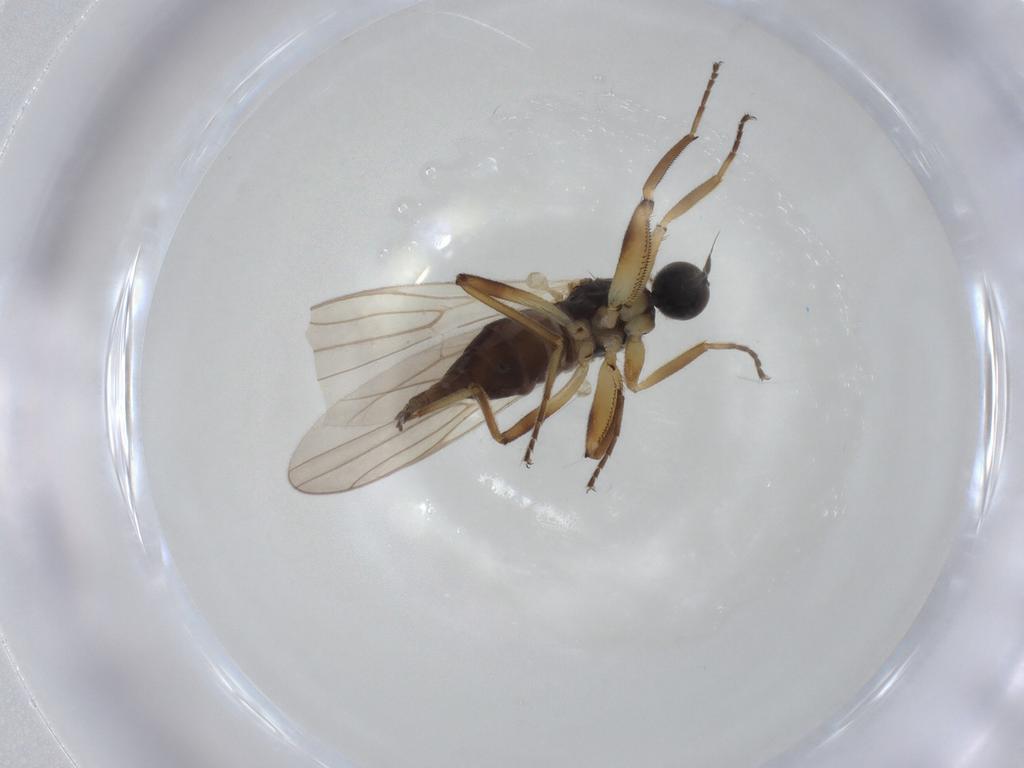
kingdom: Animalia
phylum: Arthropoda
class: Insecta
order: Diptera
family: Hybotidae
